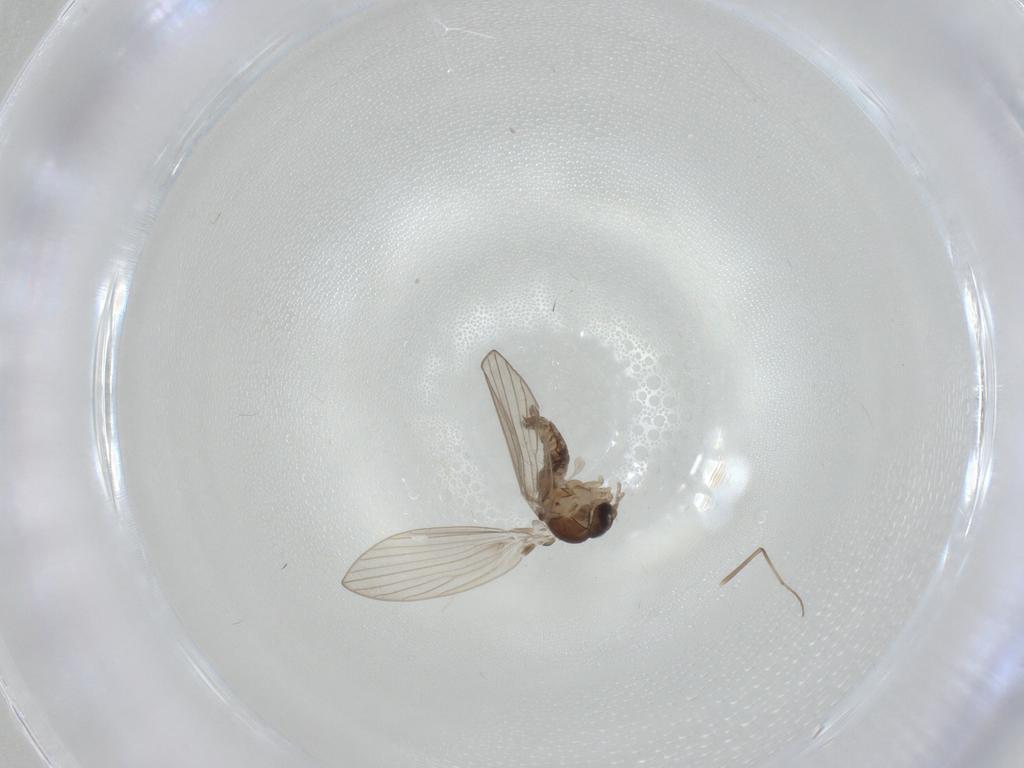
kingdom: Animalia
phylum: Arthropoda
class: Insecta
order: Diptera
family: Psychodidae
